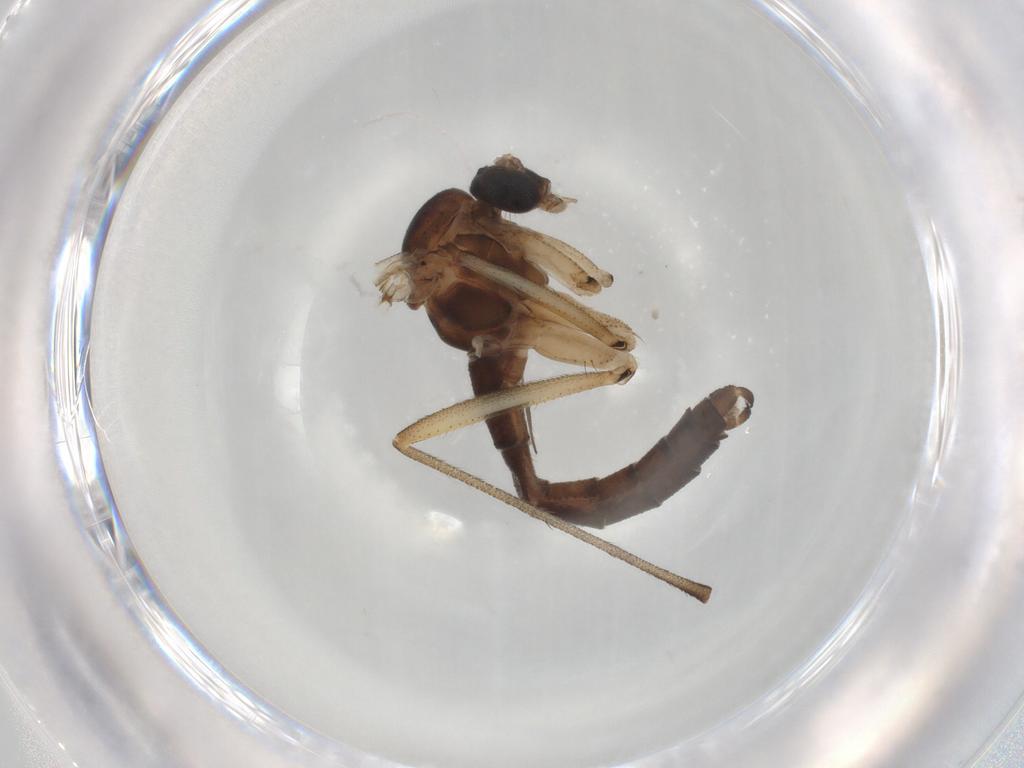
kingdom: Animalia
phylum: Arthropoda
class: Insecta
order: Diptera
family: Sciaridae
